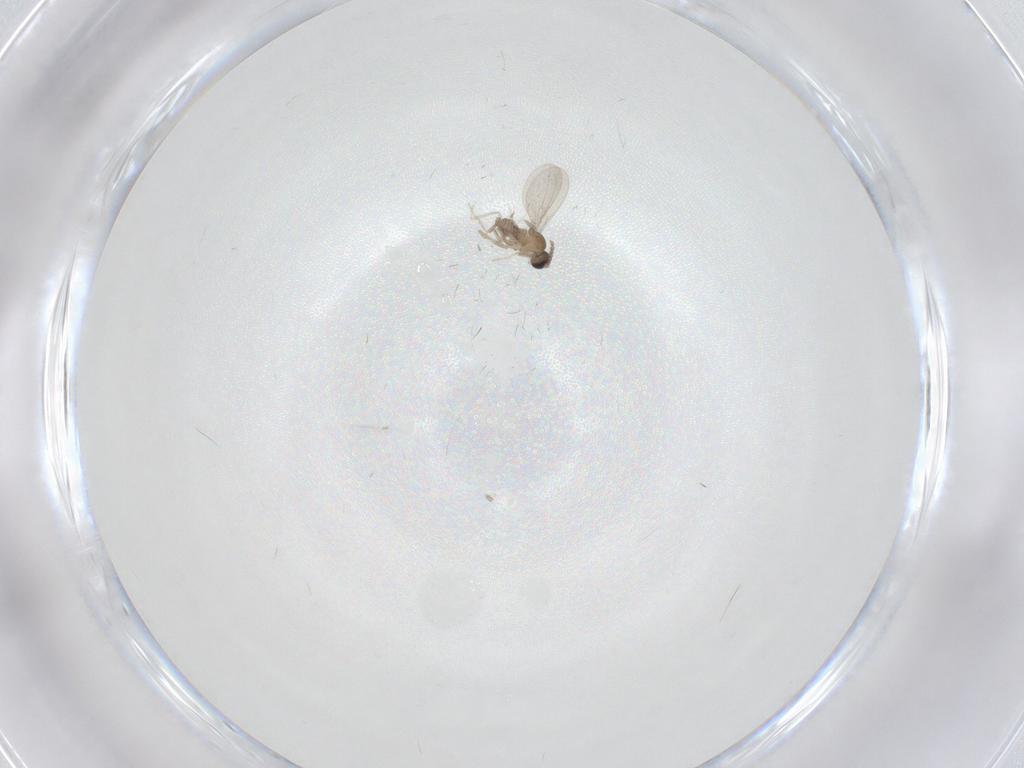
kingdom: Animalia
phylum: Arthropoda
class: Insecta
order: Diptera
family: Cecidomyiidae
